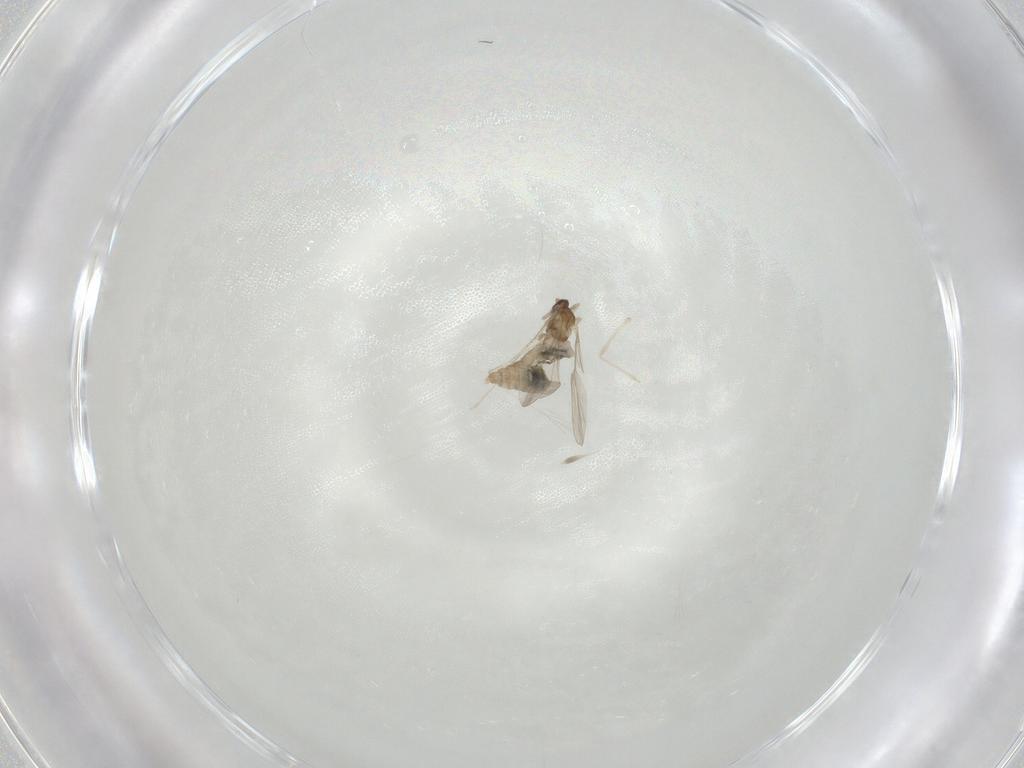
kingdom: Animalia
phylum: Arthropoda
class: Insecta
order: Diptera
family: Cecidomyiidae
